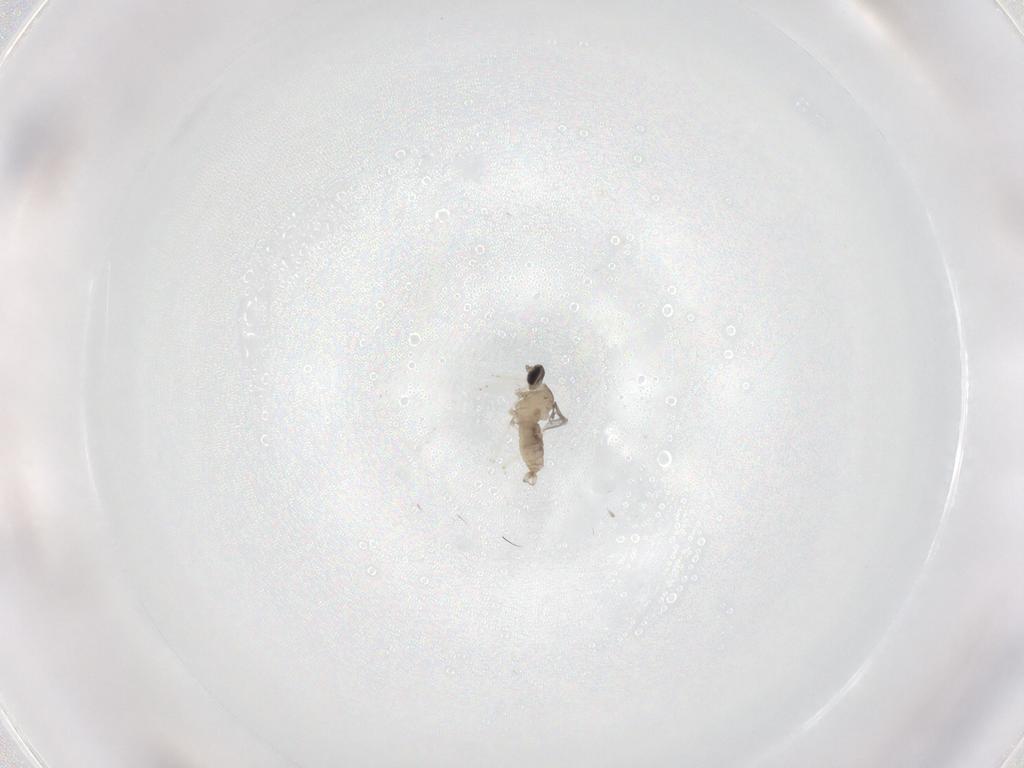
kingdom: Animalia
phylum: Arthropoda
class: Insecta
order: Diptera
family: Cecidomyiidae
